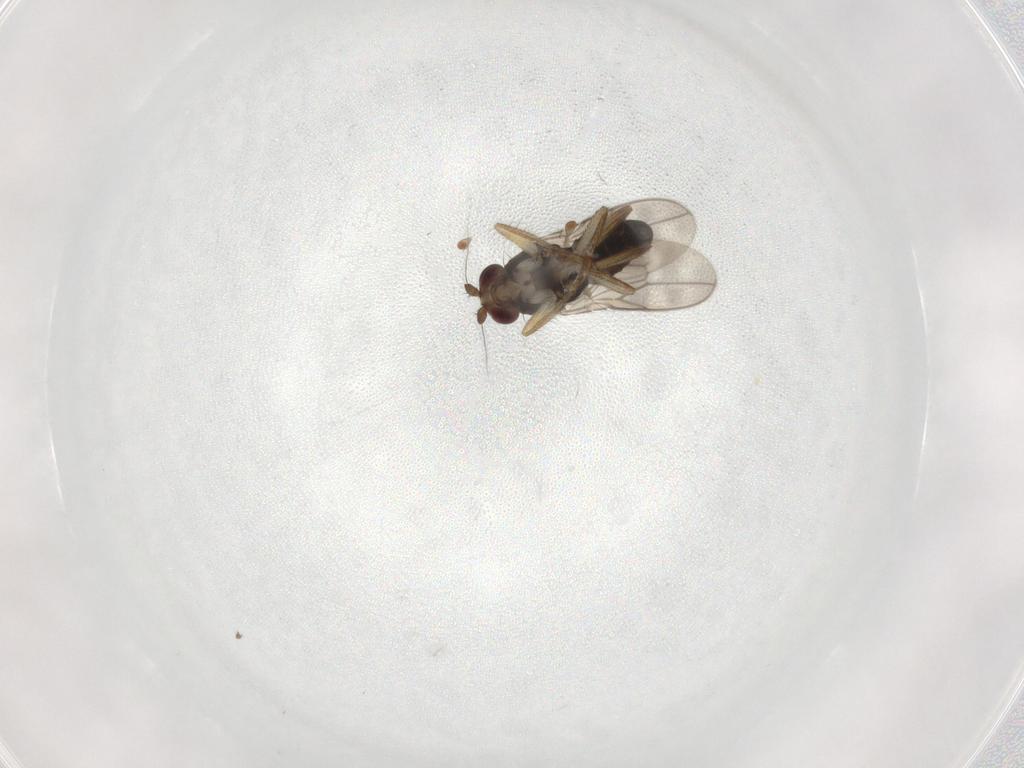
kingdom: Animalia
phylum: Arthropoda
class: Insecta
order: Diptera
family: Sphaeroceridae
